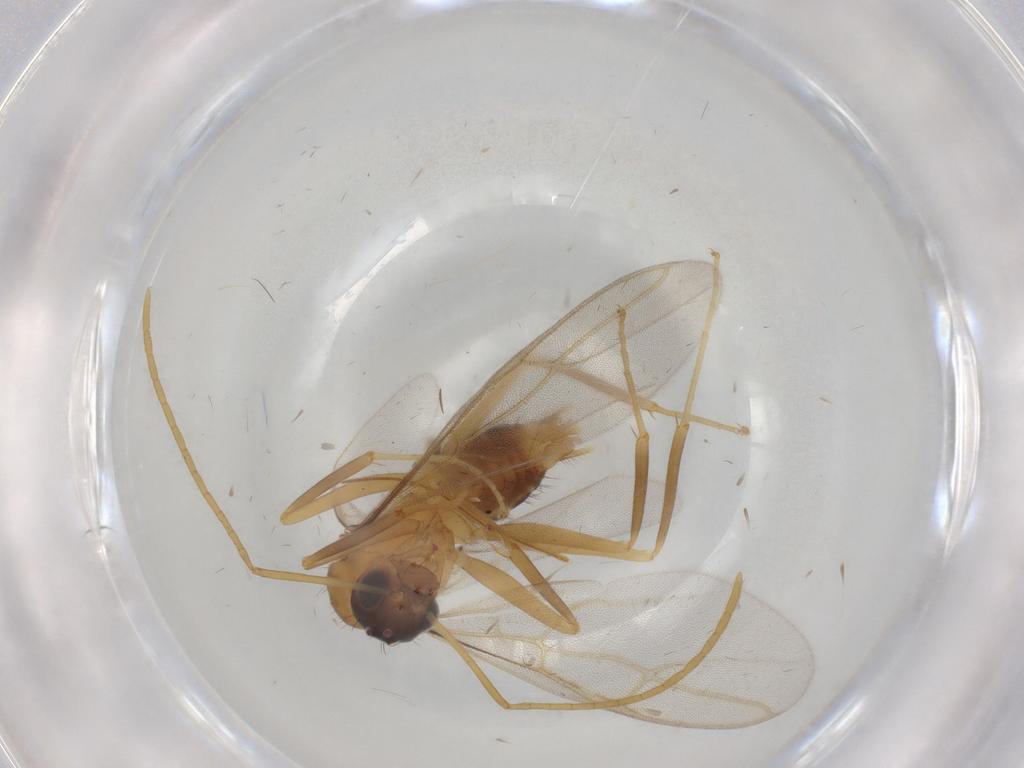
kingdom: Animalia
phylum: Arthropoda
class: Insecta
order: Hymenoptera
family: Formicidae
